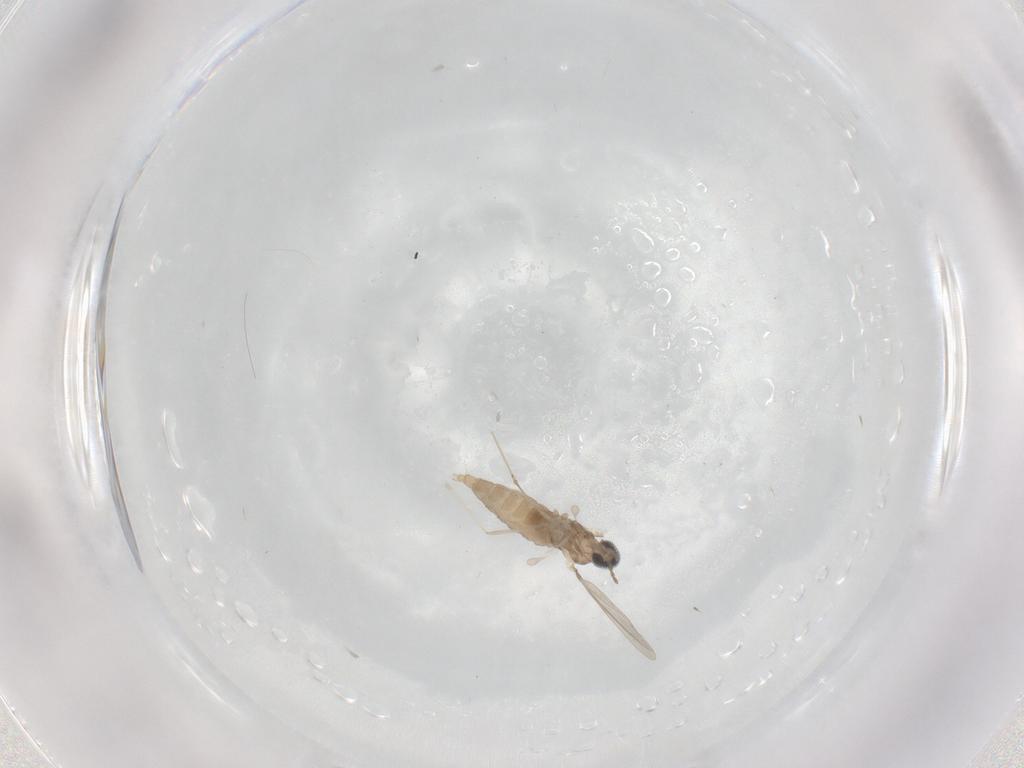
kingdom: Animalia
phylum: Arthropoda
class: Insecta
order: Diptera
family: Cecidomyiidae
